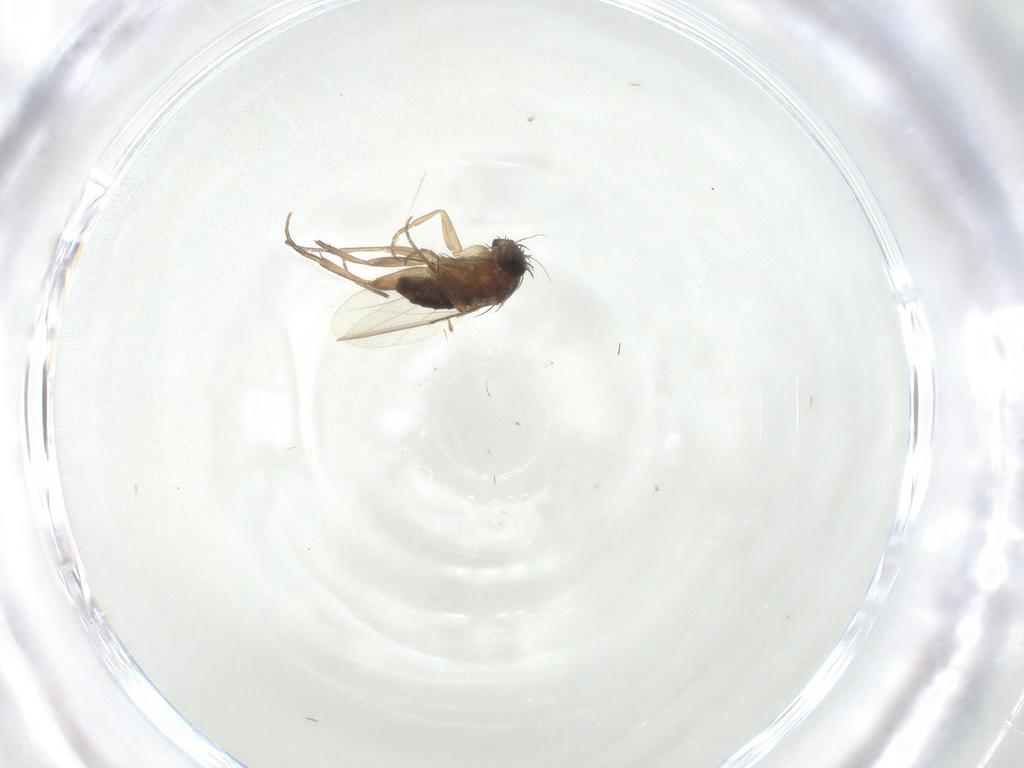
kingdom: Animalia
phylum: Arthropoda
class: Insecta
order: Diptera
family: Phoridae
